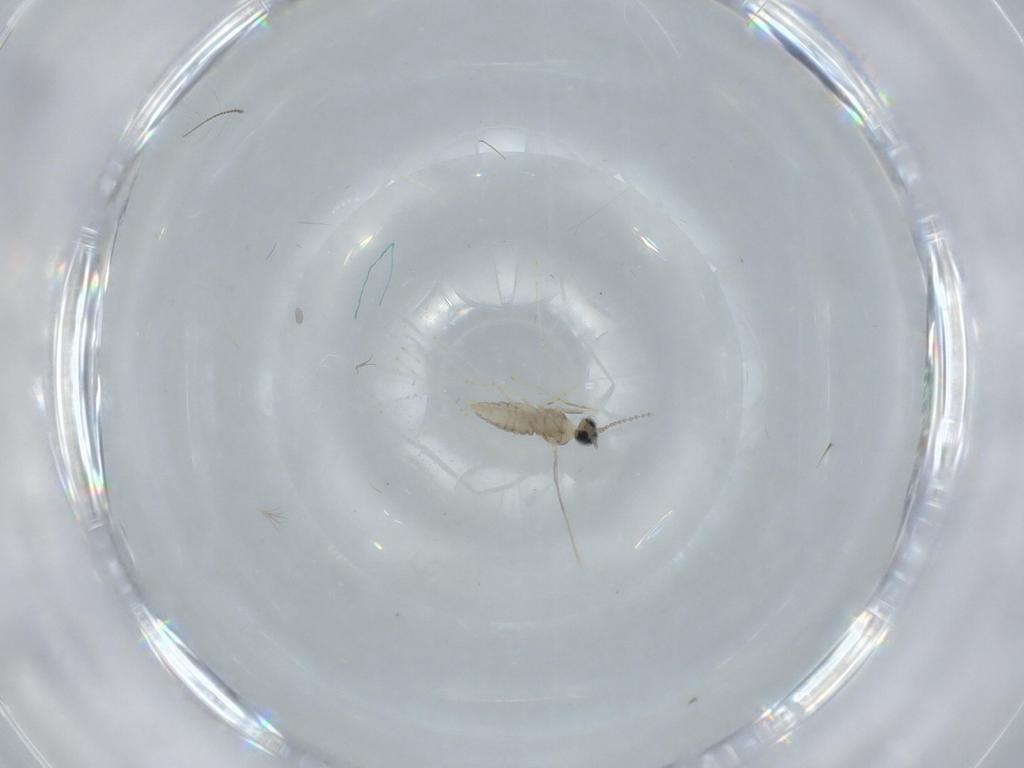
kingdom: Animalia
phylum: Arthropoda
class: Insecta
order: Diptera
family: Cecidomyiidae
